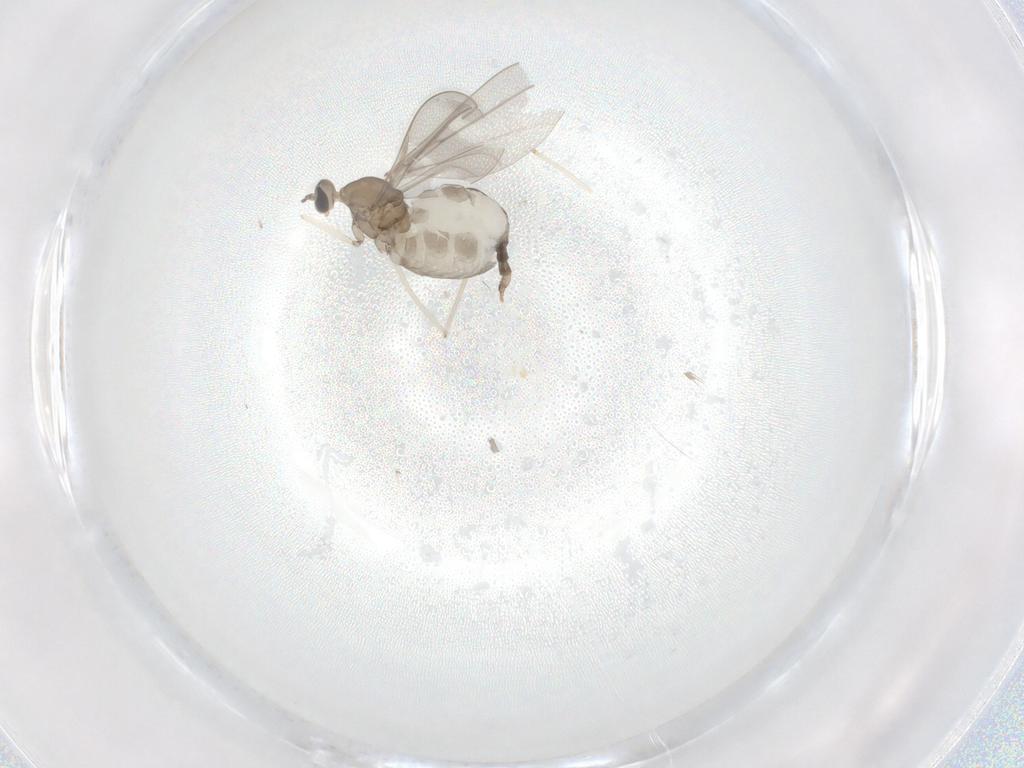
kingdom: Animalia
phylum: Arthropoda
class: Insecta
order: Diptera
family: Cecidomyiidae
